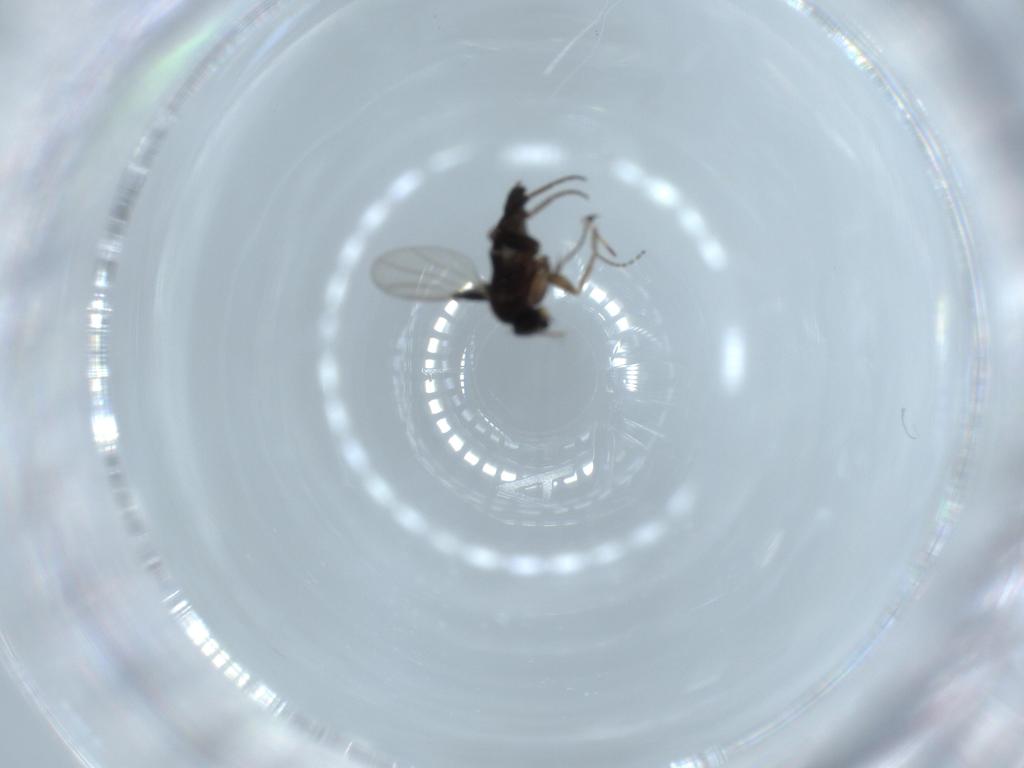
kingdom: Animalia
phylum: Arthropoda
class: Insecta
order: Diptera
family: Phoridae
